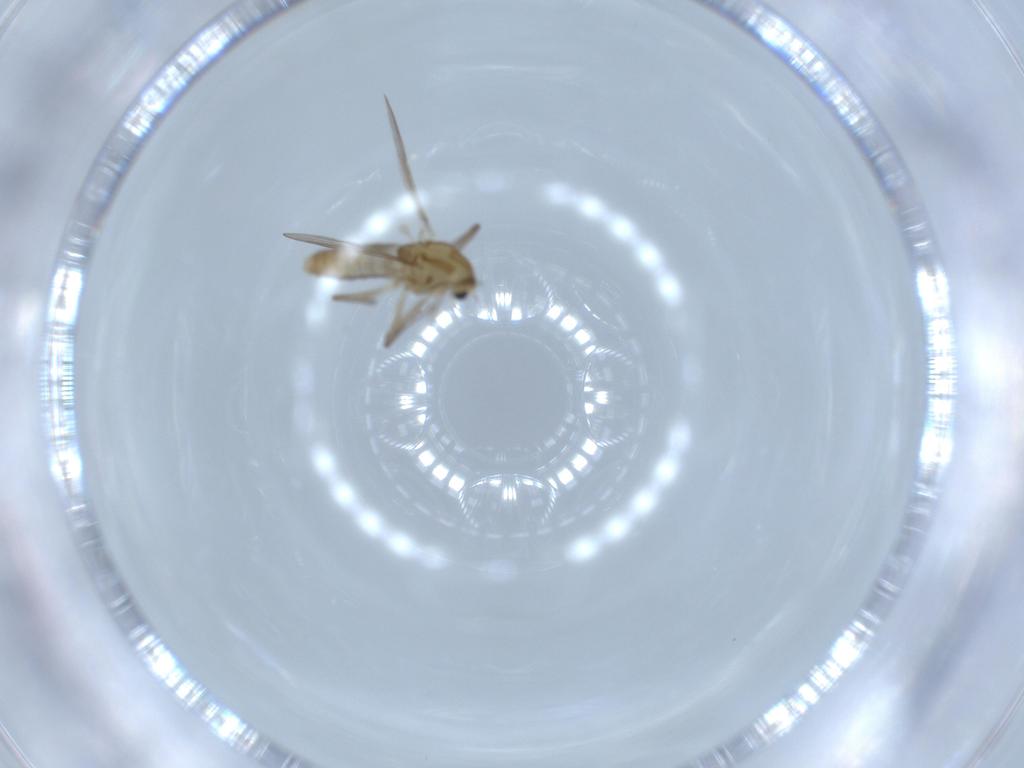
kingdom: Animalia
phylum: Arthropoda
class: Insecta
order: Diptera
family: Chironomidae
